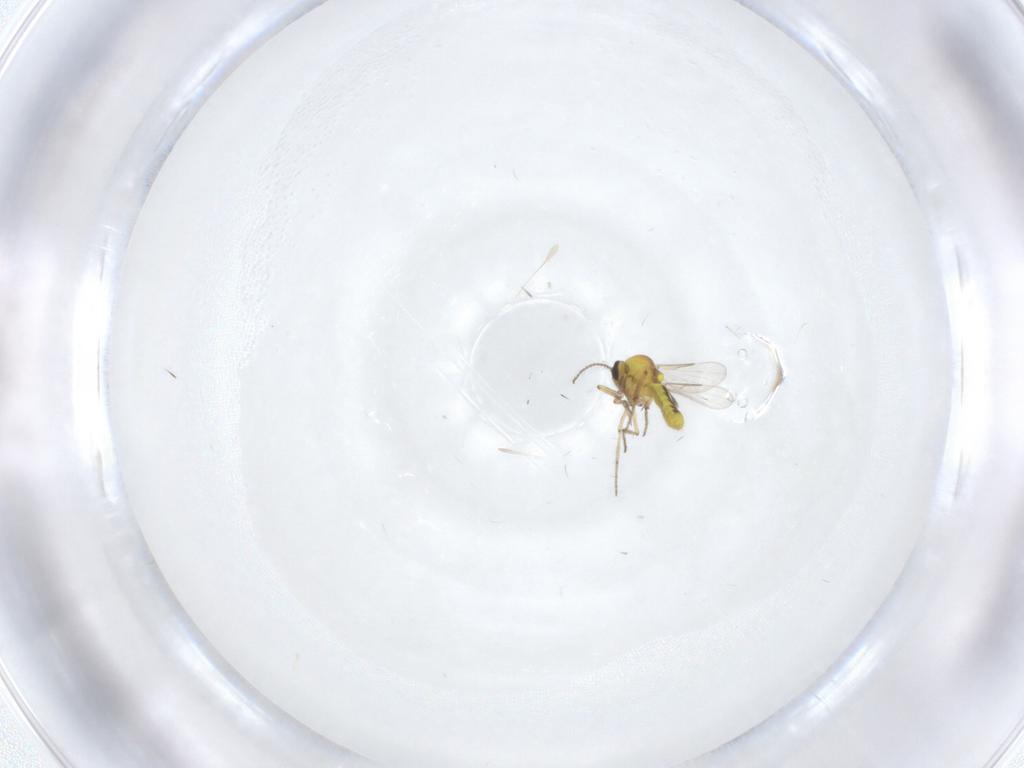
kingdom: Animalia
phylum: Arthropoda
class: Insecta
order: Diptera
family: Ceratopogonidae
